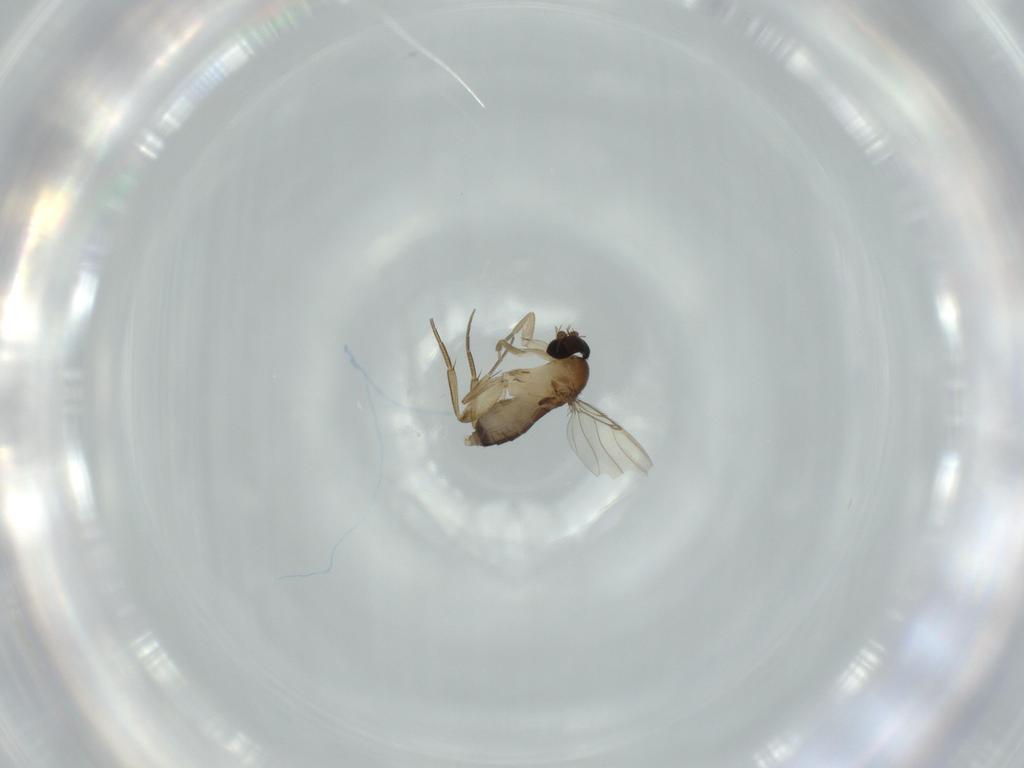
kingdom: Animalia
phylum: Arthropoda
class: Insecta
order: Diptera
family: Phoridae
